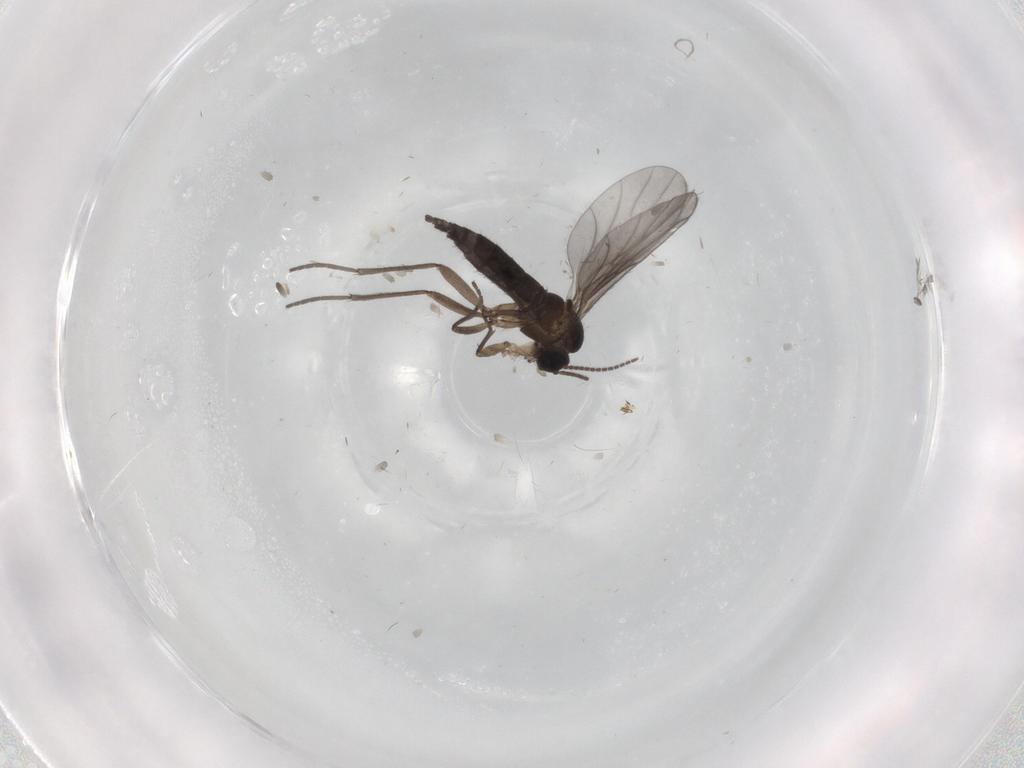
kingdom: Animalia
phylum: Arthropoda
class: Insecta
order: Diptera
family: Sciaridae
